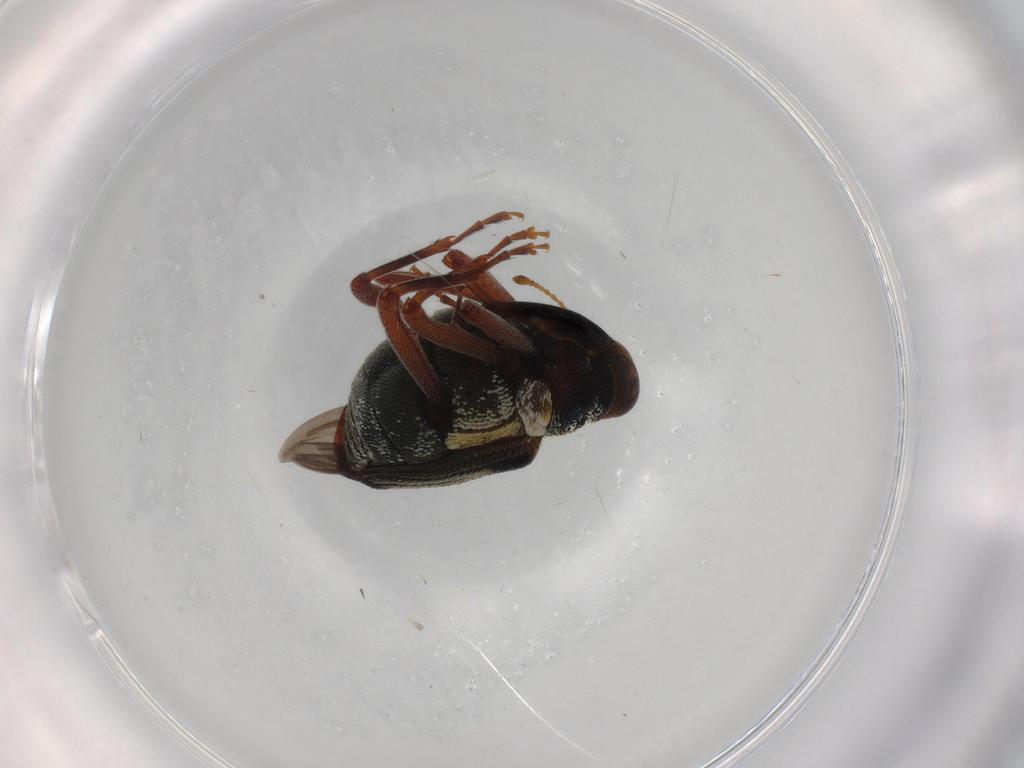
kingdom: Animalia
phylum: Arthropoda
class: Insecta
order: Coleoptera
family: Curculionidae
